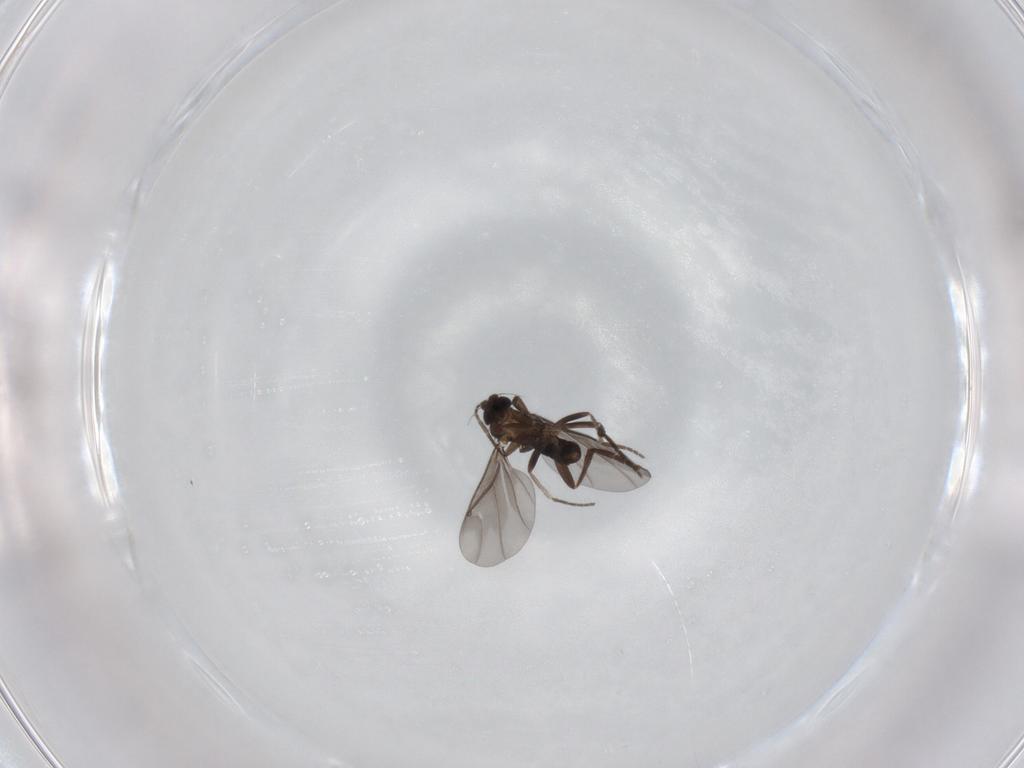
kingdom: Animalia
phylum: Arthropoda
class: Insecta
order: Diptera
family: Phoridae
